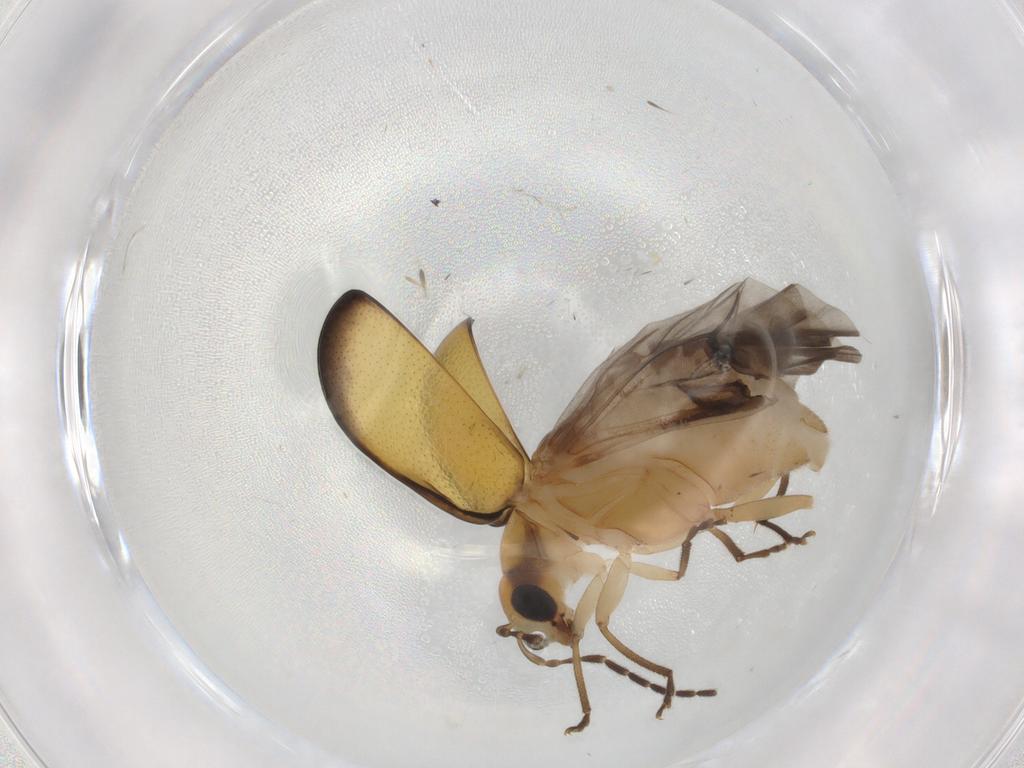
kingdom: Animalia
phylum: Arthropoda
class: Insecta
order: Coleoptera
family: Chrysomelidae
